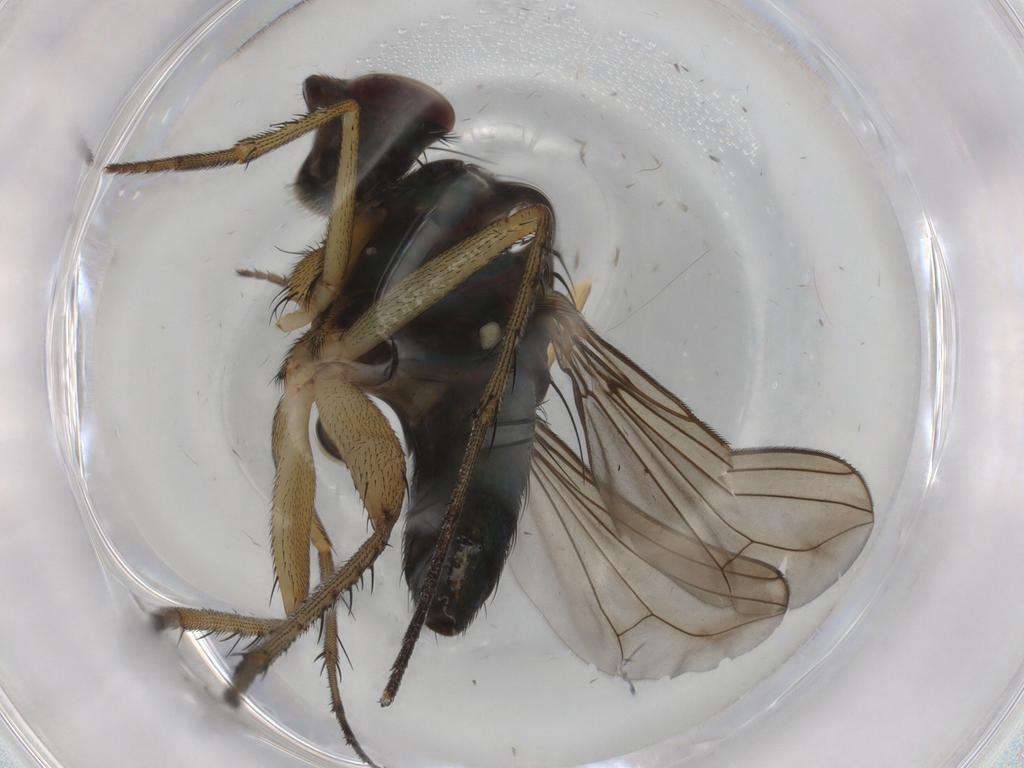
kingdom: Animalia
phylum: Arthropoda
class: Insecta
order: Diptera
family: Dolichopodidae
